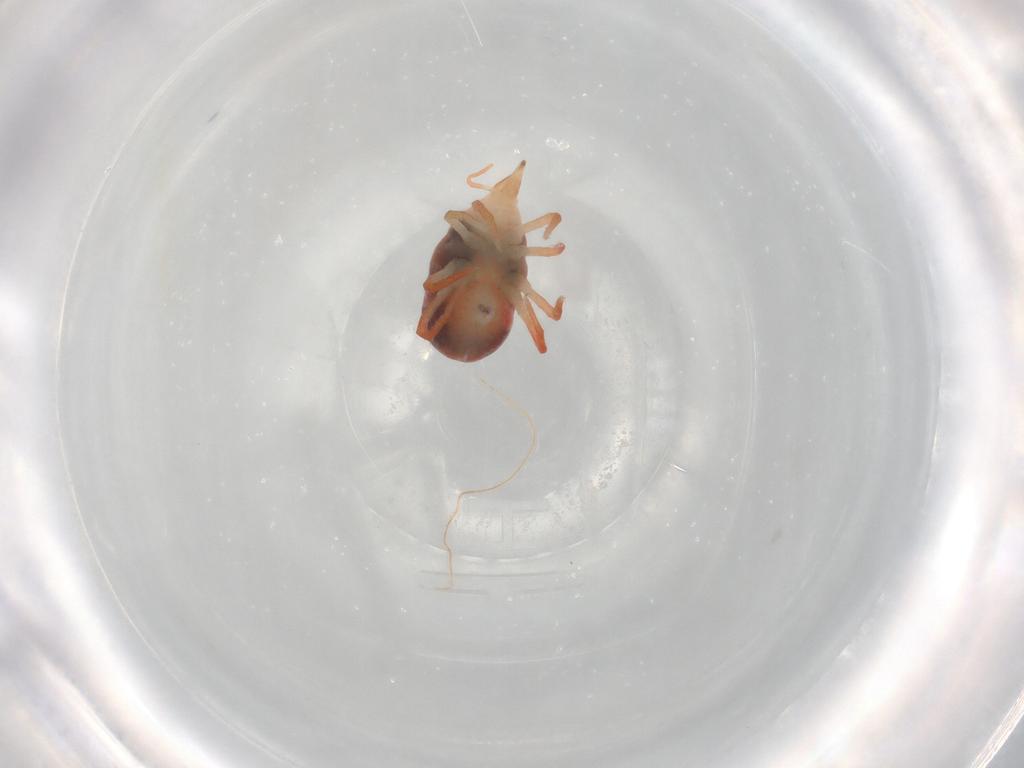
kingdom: Animalia
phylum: Arthropoda
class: Arachnida
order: Trombidiformes
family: Bdellidae
